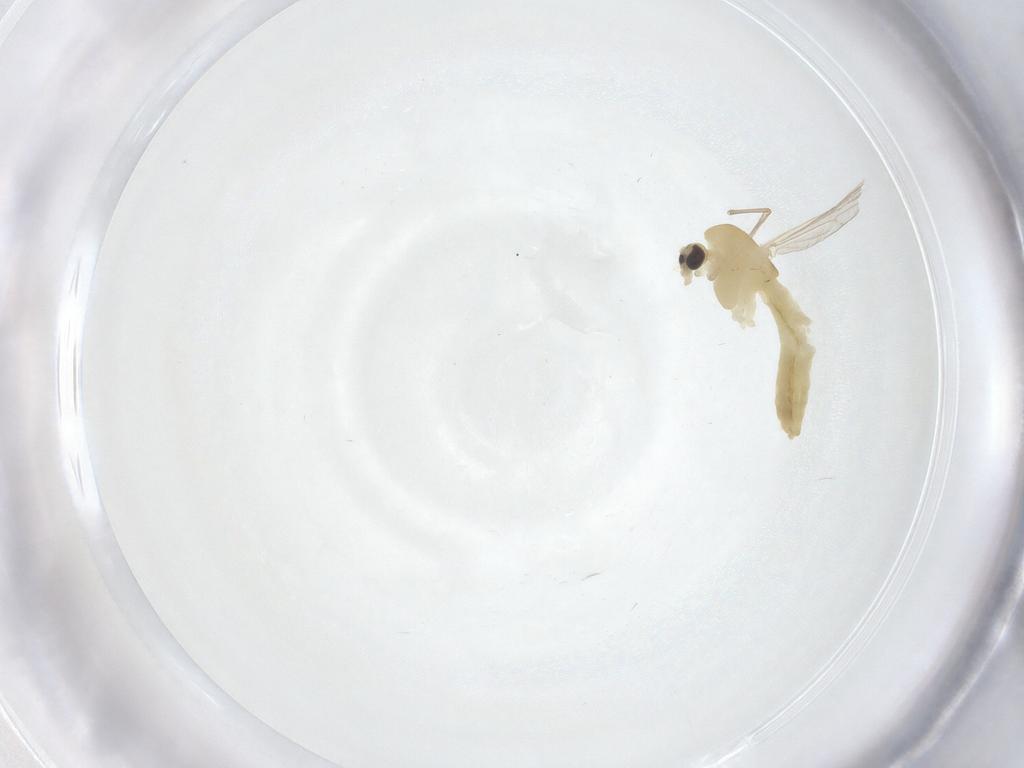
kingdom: Animalia
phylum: Arthropoda
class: Insecta
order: Diptera
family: Chironomidae
